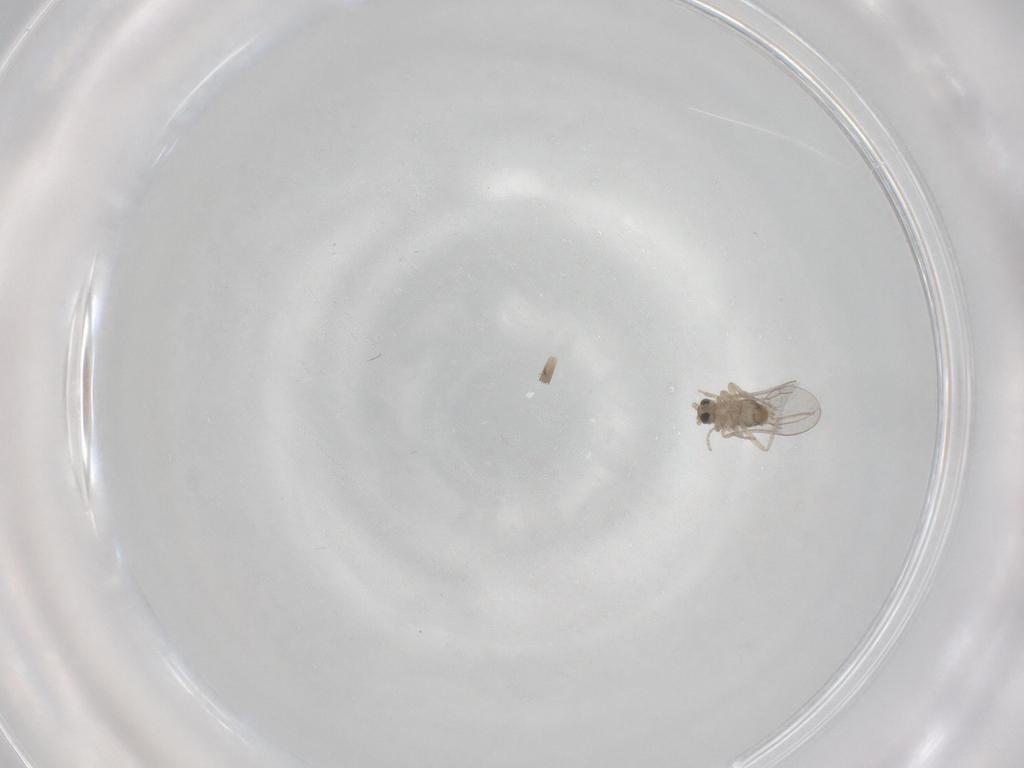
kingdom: Animalia
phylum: Arthropoda
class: Insecta
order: Diptera
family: Cecidomyiidae
